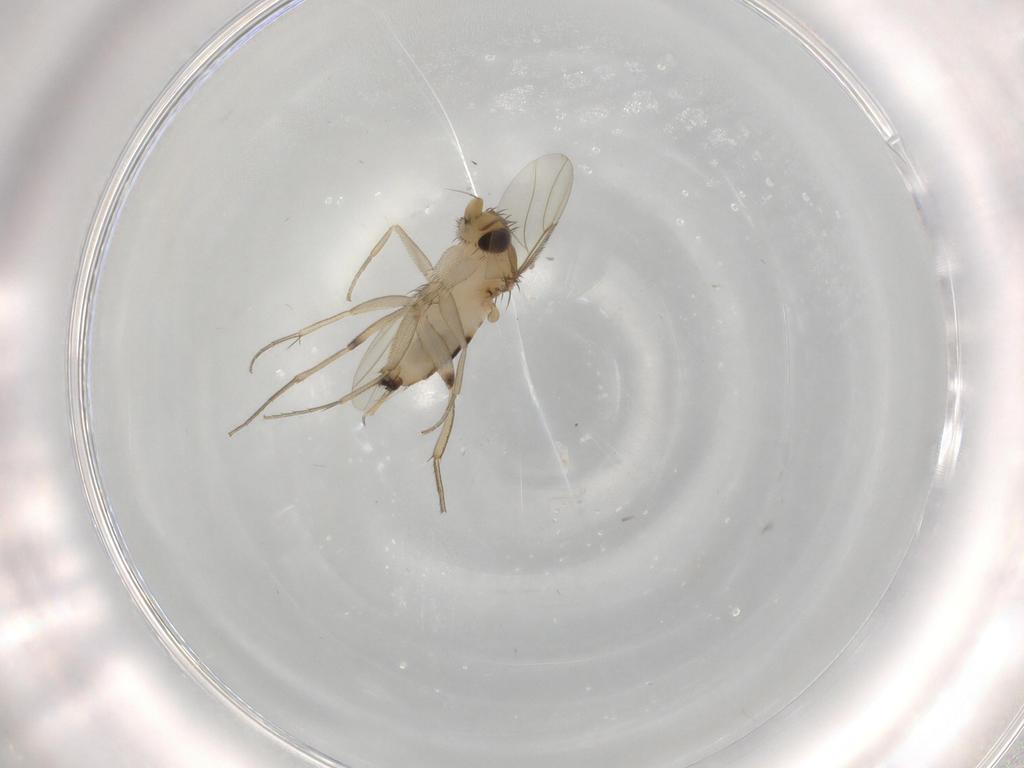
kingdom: Animalia
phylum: Arthropoda
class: Insecta
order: Diptera
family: Phoridae
